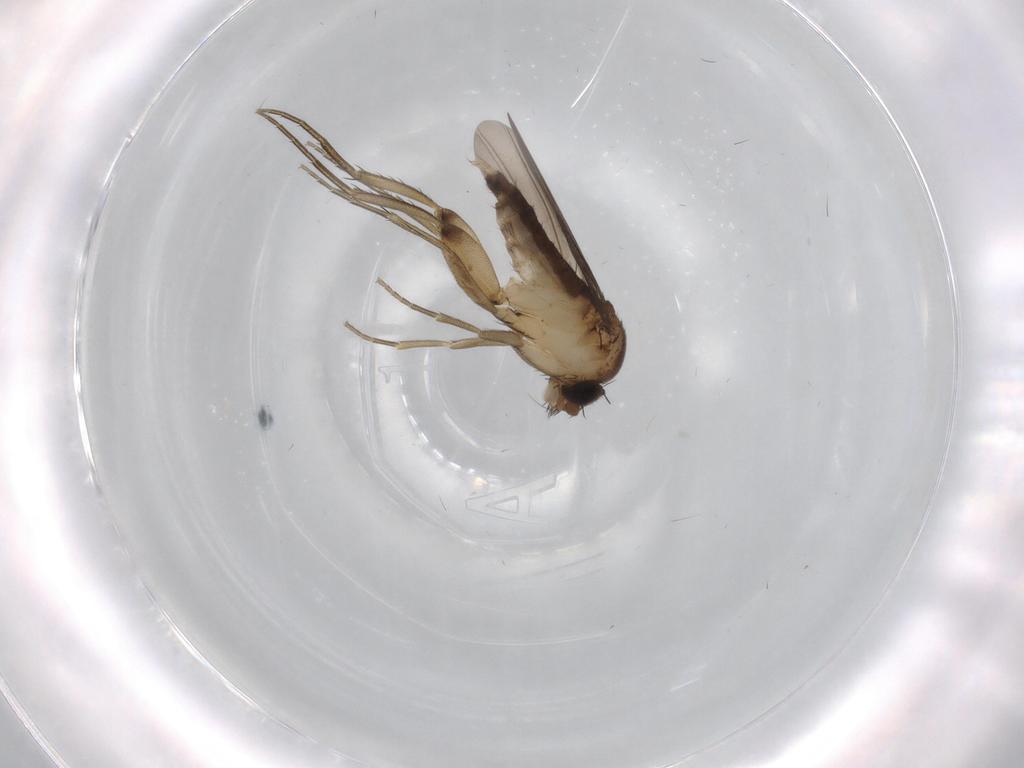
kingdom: Animalia
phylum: Arthropoda
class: Insecta
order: Diptera
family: Phoridae
